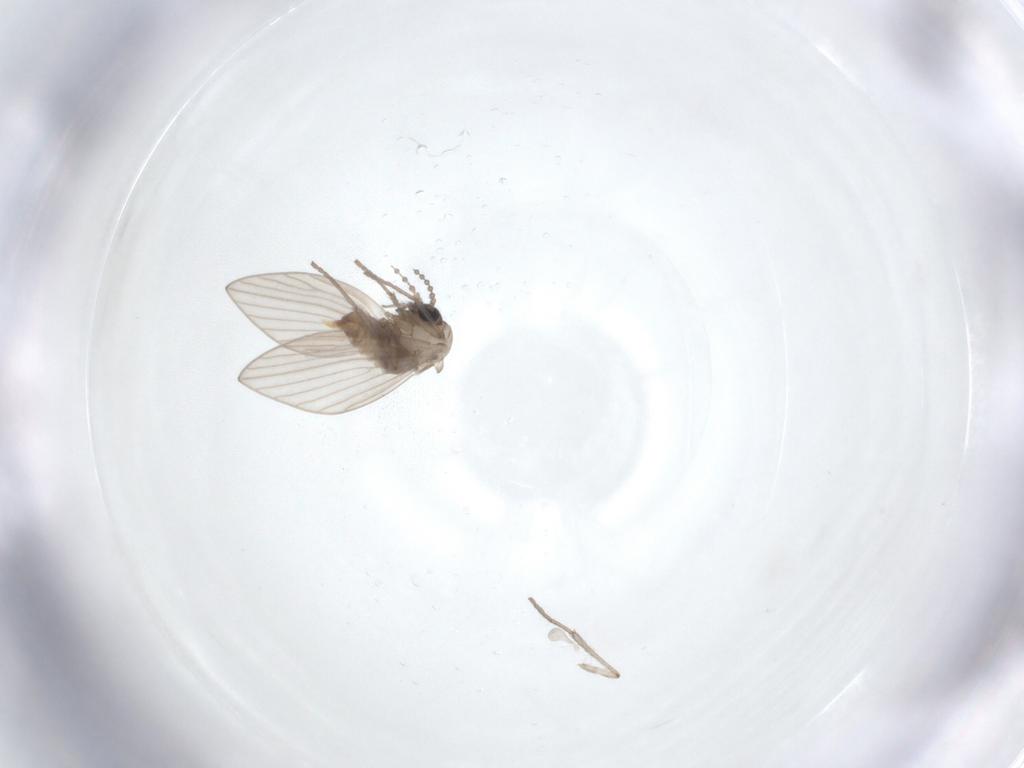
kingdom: Animalia
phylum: Arthropoda
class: Insecta
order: Diptera
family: Psychodidae
